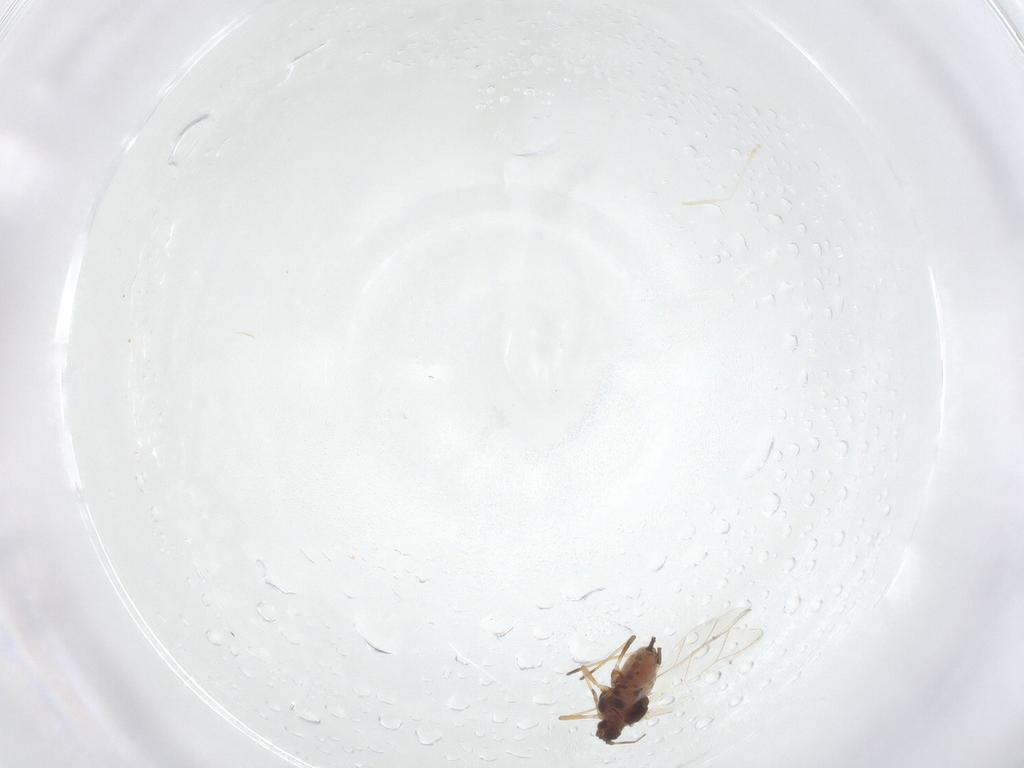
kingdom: Animalia
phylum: Arthropoda
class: Insecta
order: Hemiptera
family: Aphididae
